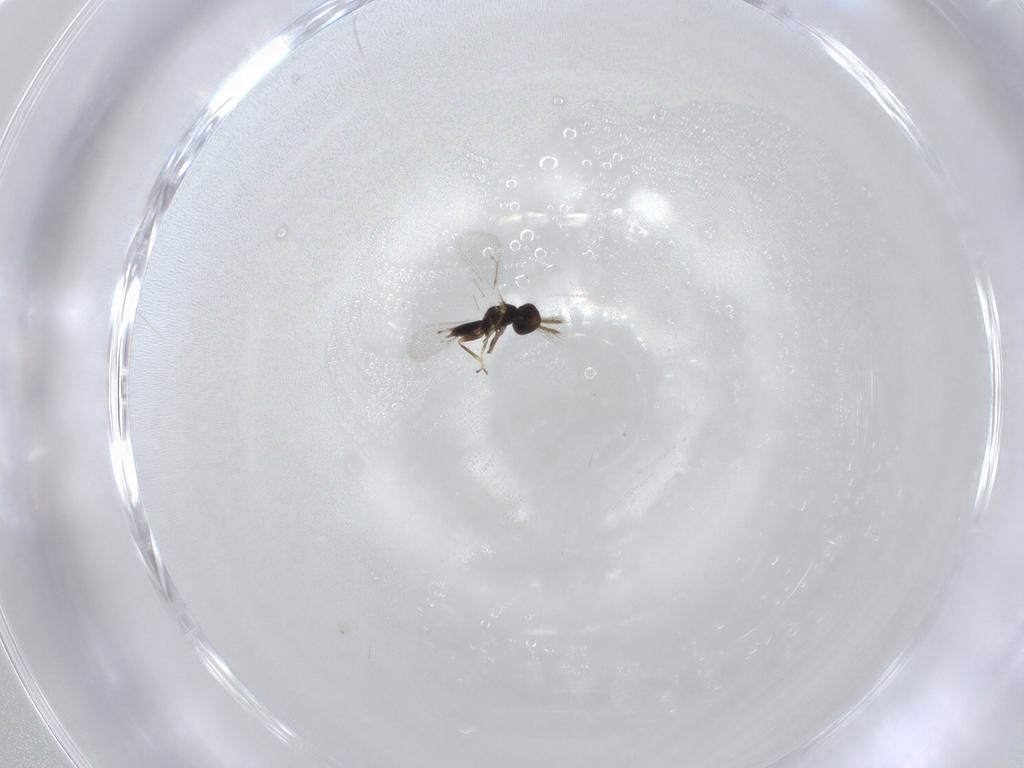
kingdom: Animalia
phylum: Arthropoda
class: Insecta
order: Hymenoptera
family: Eulophidae
